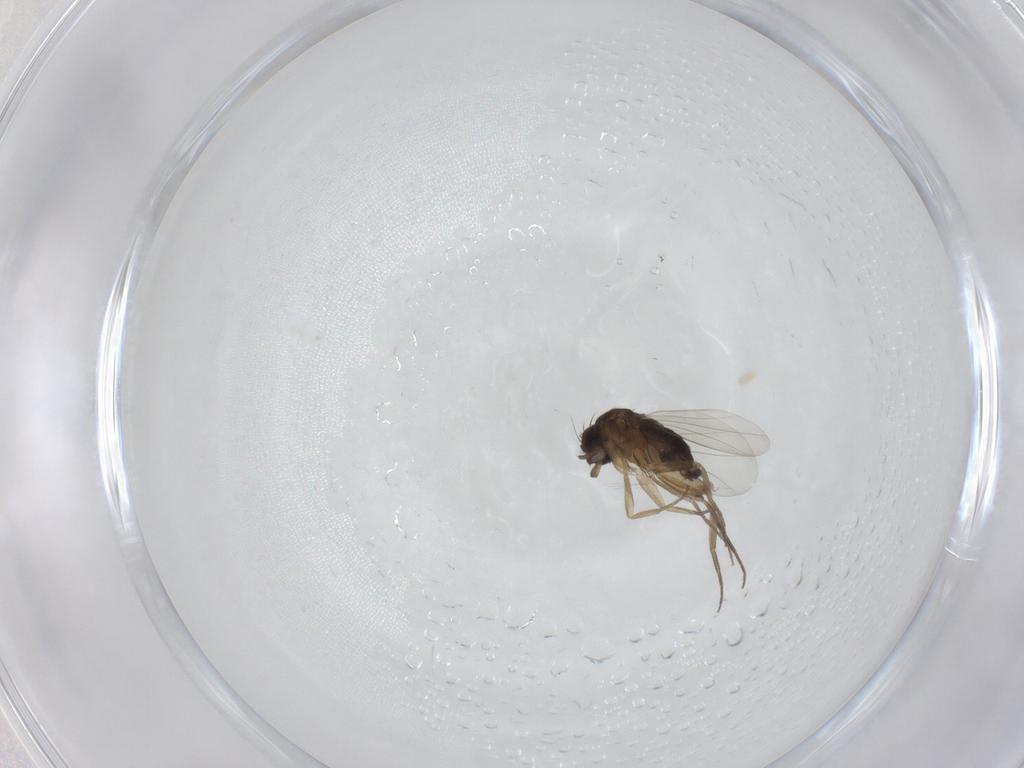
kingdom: Animalia
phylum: Arthropoda
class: Insecta
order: Diptera
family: Phoridae
